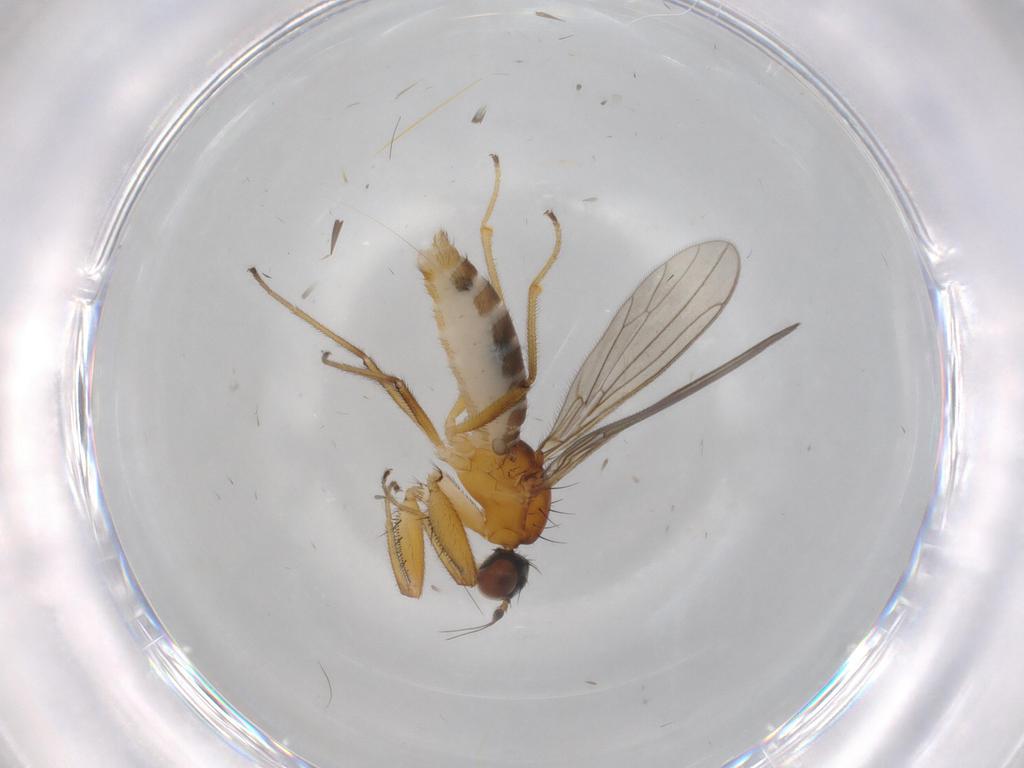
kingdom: Animalia
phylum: Arthropoda
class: Insecta
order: Diptera
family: Empididae
